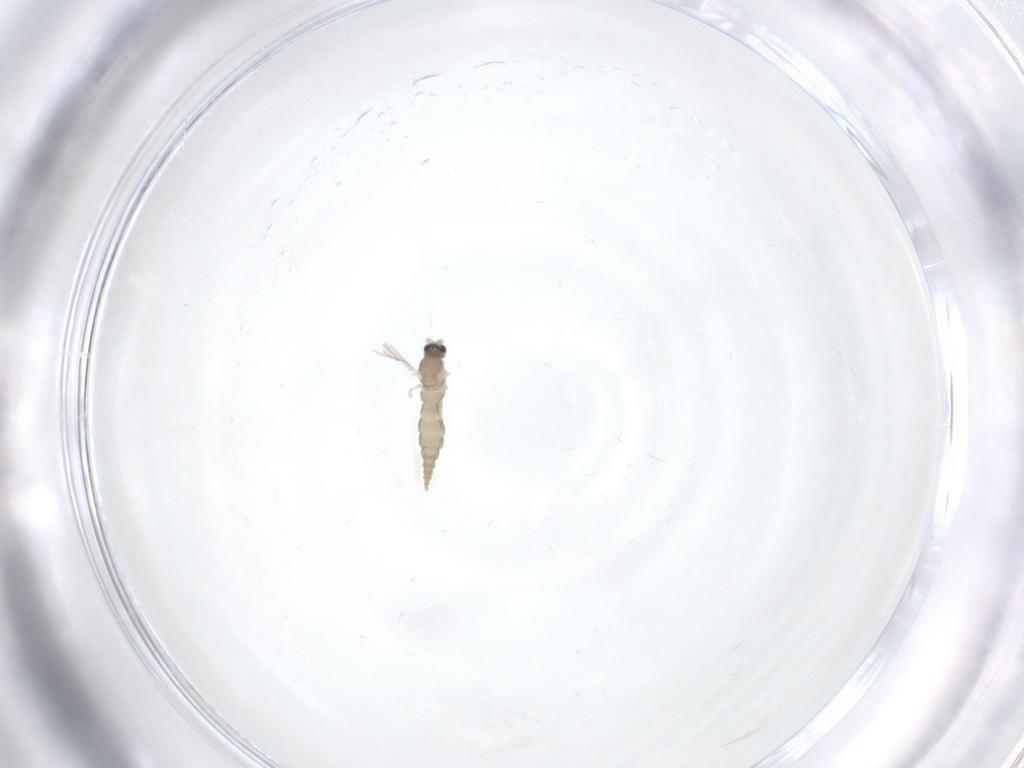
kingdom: Animalia
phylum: Arthropoda
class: Insecta
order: Diptera
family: Cecidomyiidae
